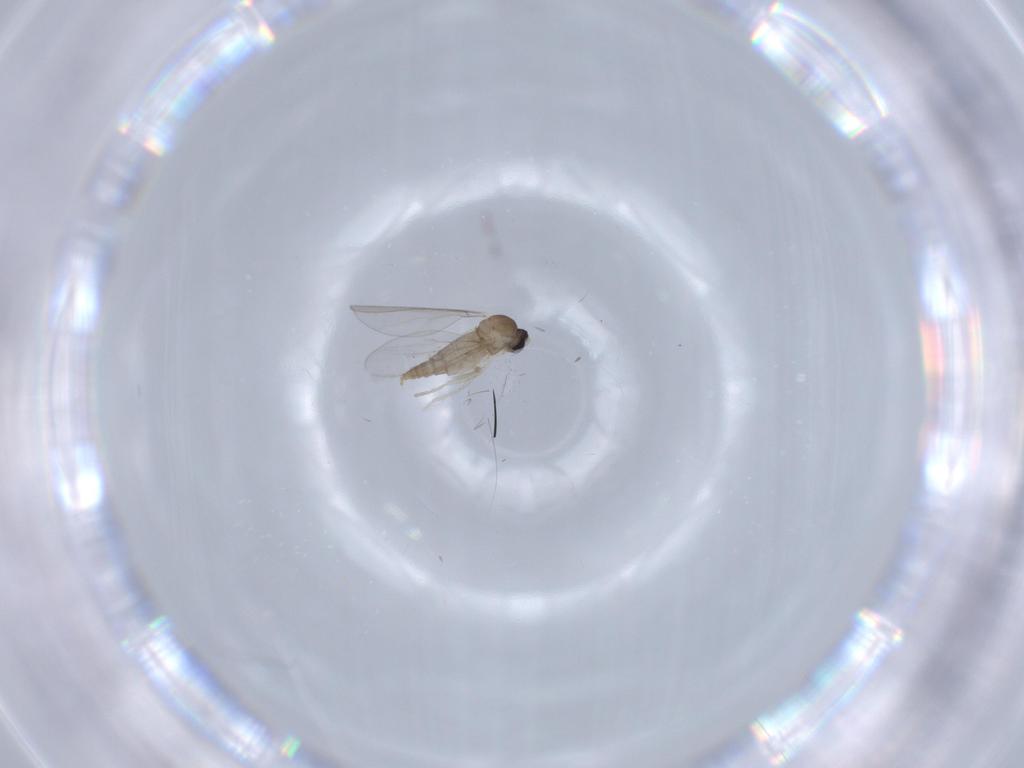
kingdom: Animalia
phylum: Arthropoda
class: Insecta
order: Diptera
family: Cecidomyiidae
